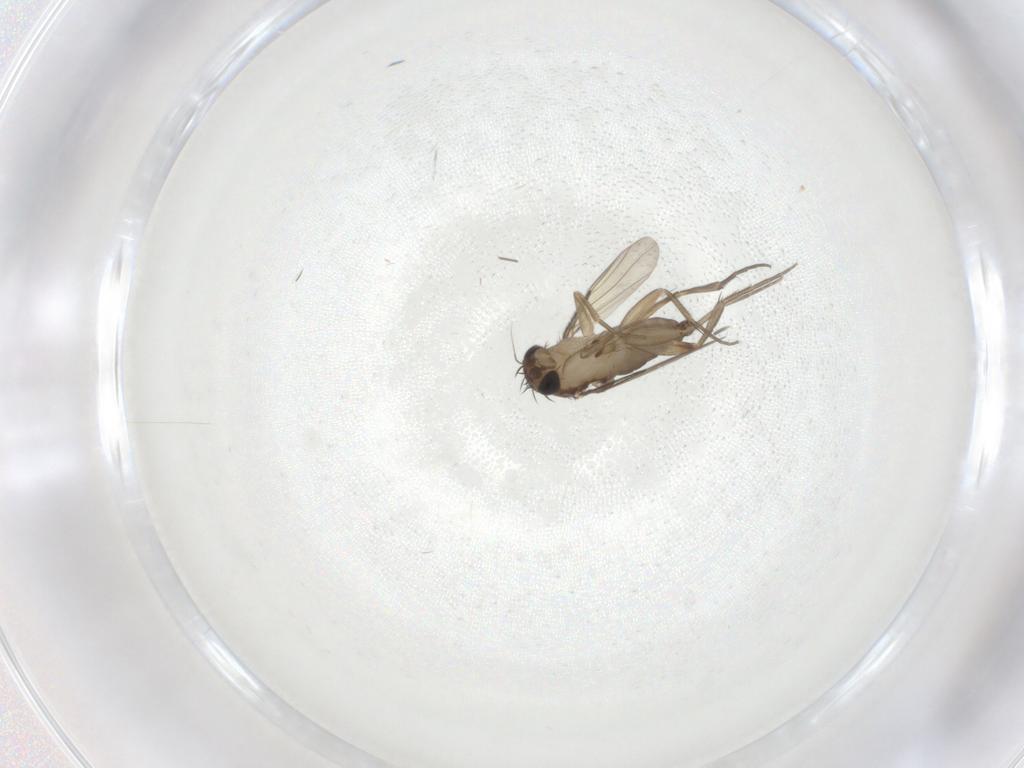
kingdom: Animalia
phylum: Arthropoda
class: Insecta
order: Diptera
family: Phoridae
